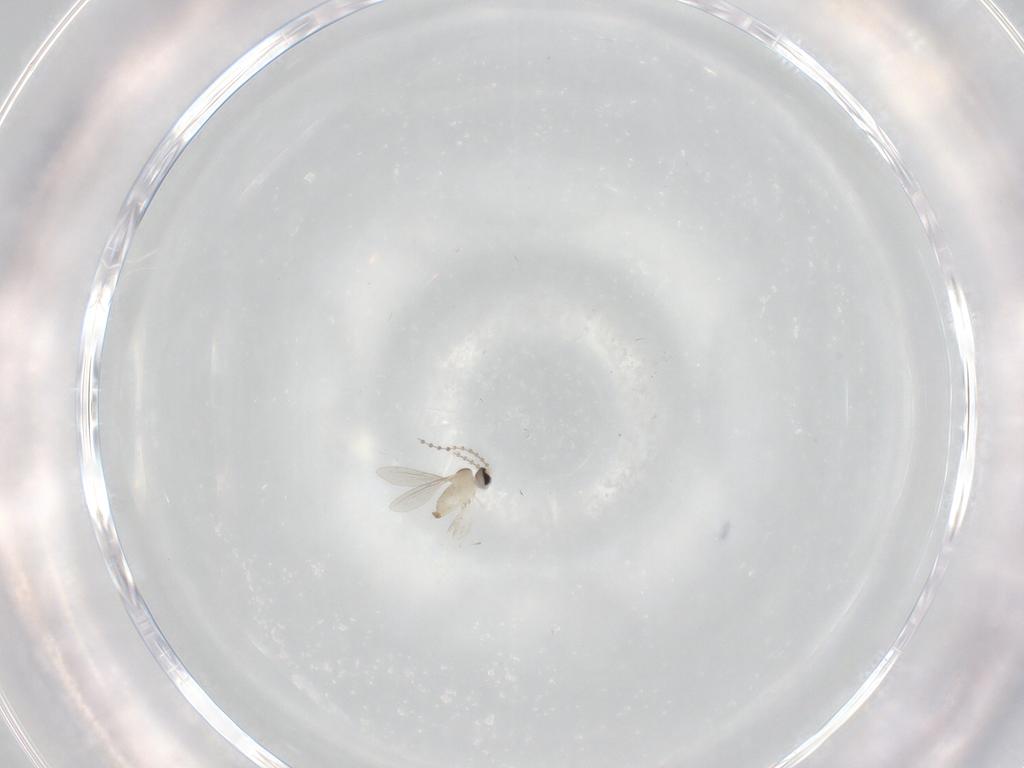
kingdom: Animalia
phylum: Arthropoda
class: Insecta
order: Diptera
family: Cecidomyiidae
